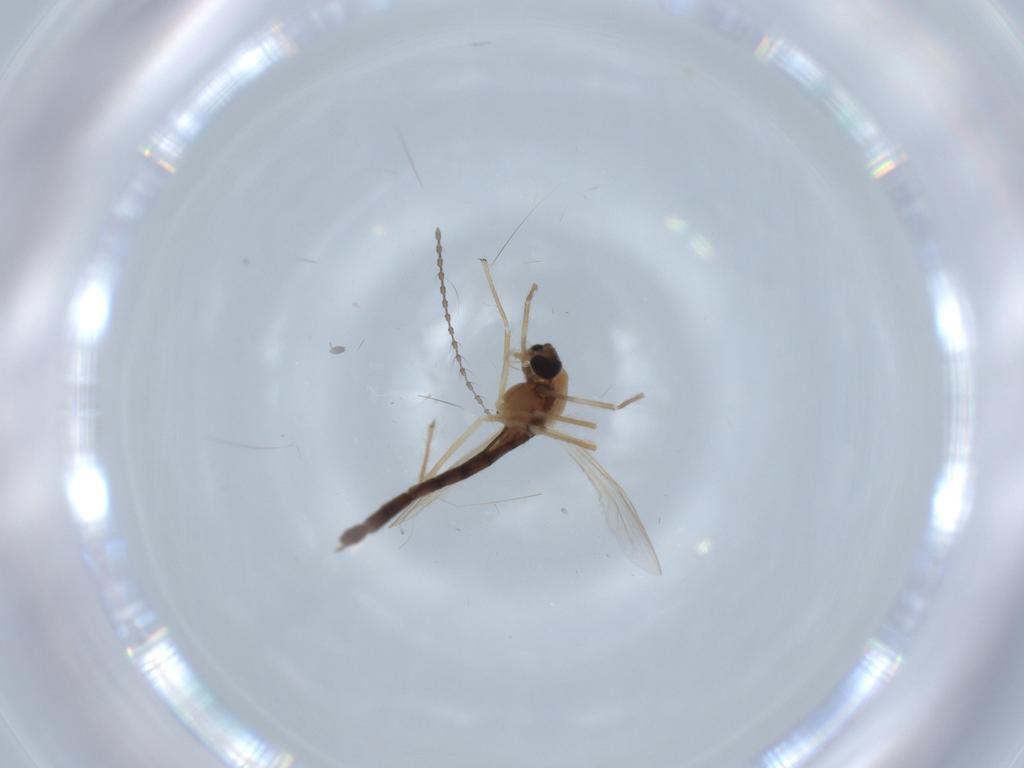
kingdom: Animalia
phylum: Arthropoda
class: Insecta
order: Diptera
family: Chironomidae
